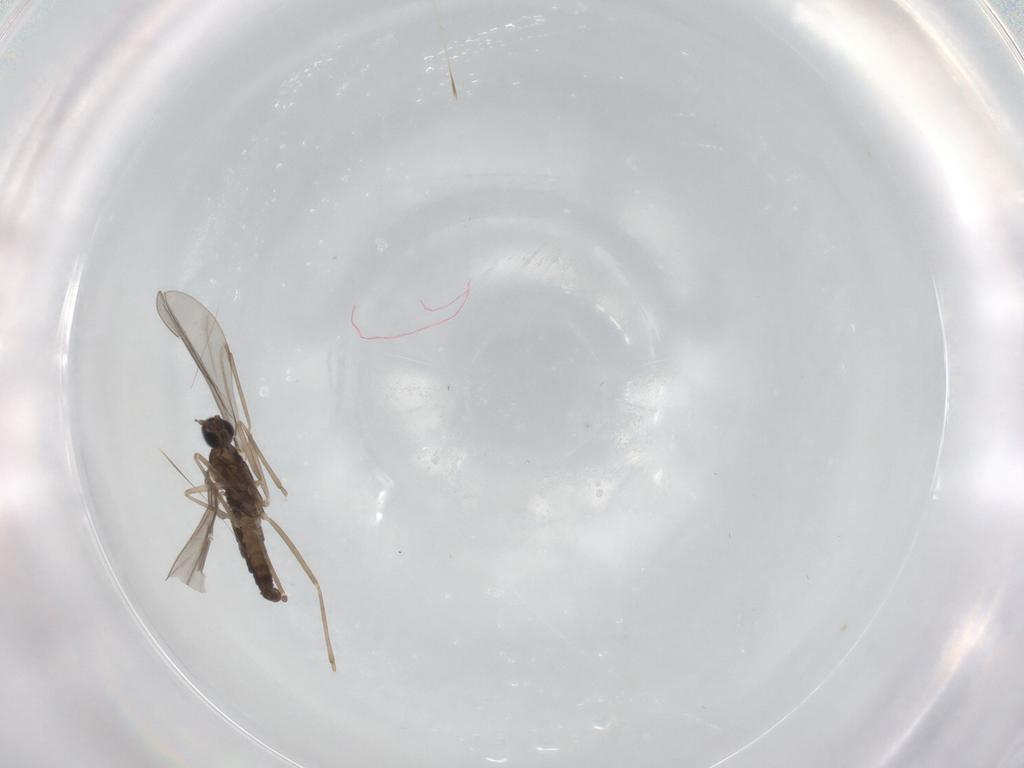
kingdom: Animalia
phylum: Arthropoda
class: Insecta
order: Diptera
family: Cecidomyiidae
